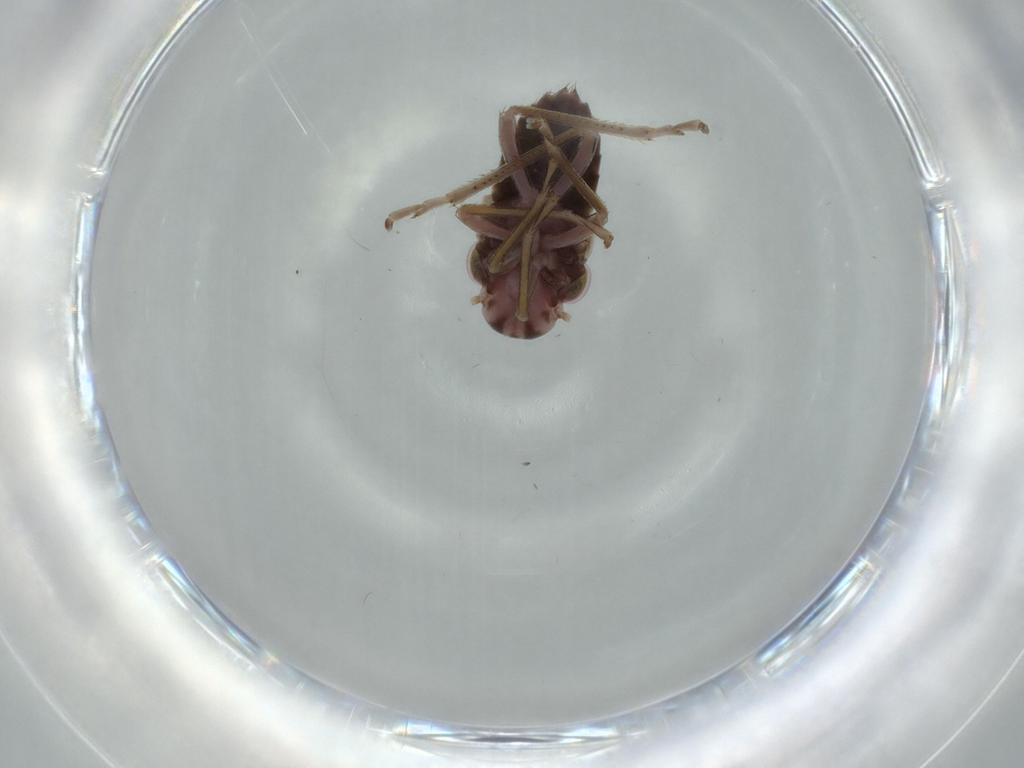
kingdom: Animalia
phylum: Arthropoda
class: Insecta
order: Hemiptera
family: Cicadellidae
